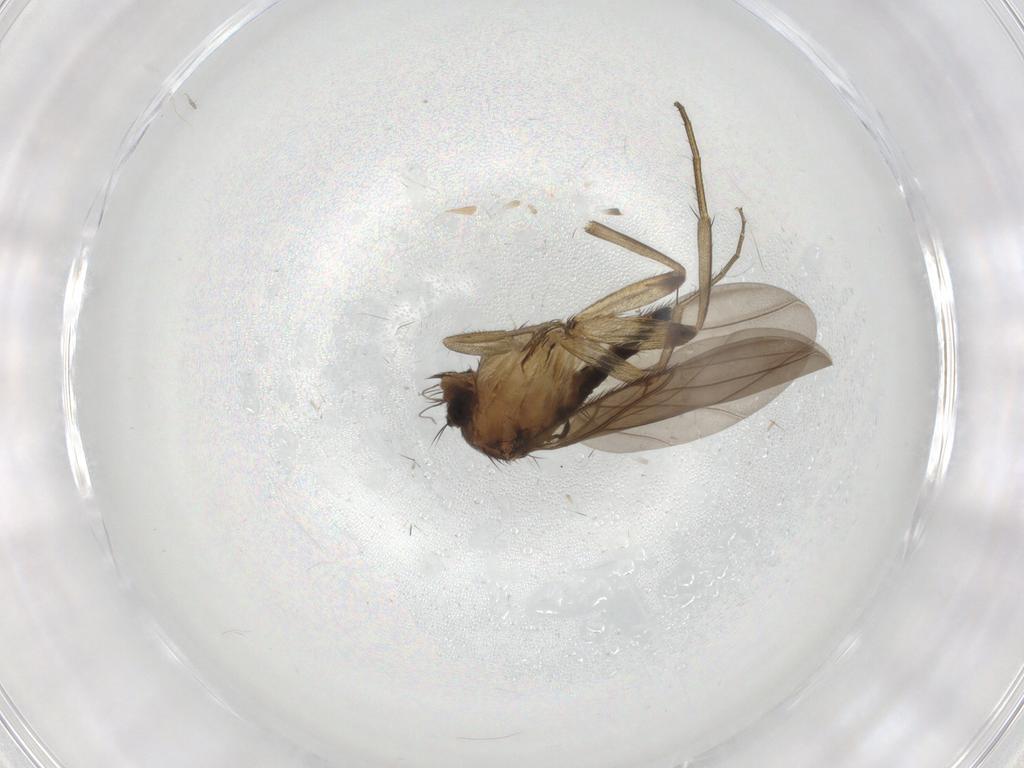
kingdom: Animalia
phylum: Arthropoda
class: Insecta
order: Diptera
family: Phoridae
